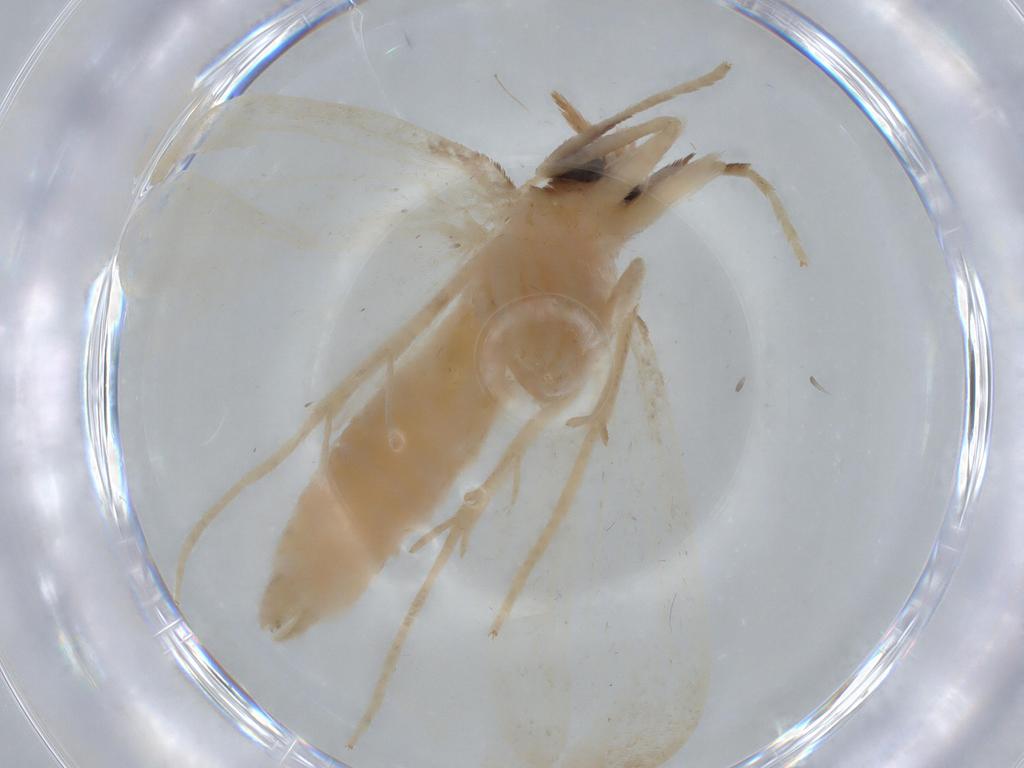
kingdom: Animalia
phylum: Arthropoda
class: Insecta
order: Lepidoptera
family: Crambidae
